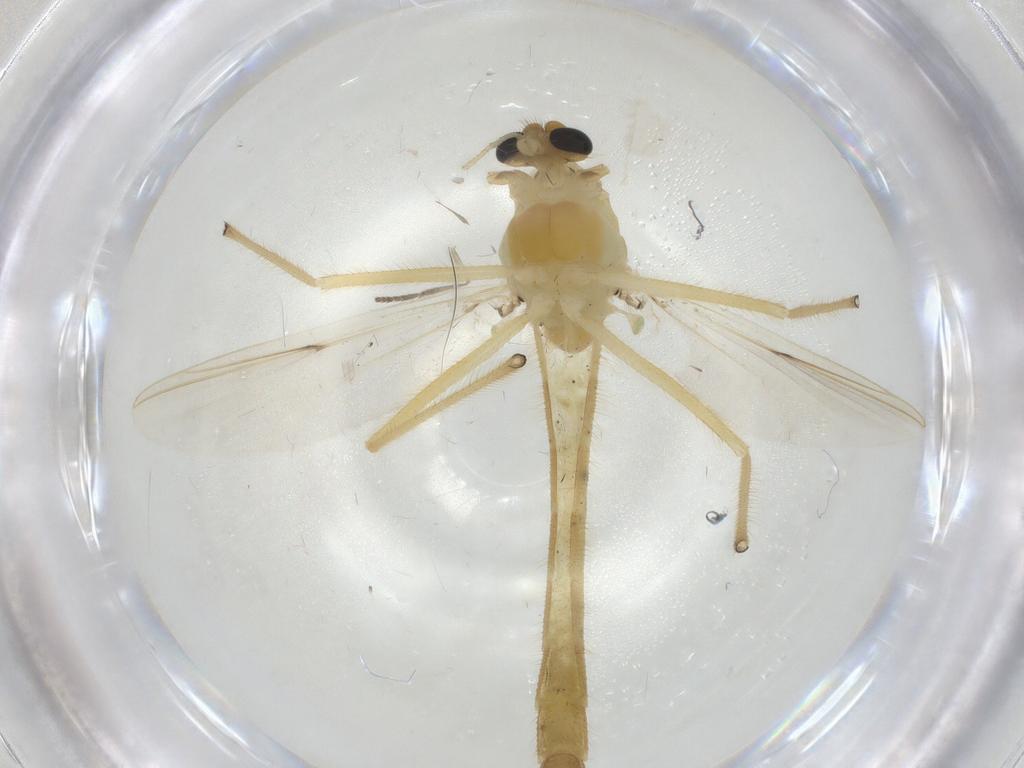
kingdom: Animalia
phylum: Arthropoda
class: Insecta
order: Diptera
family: Chironomidae
